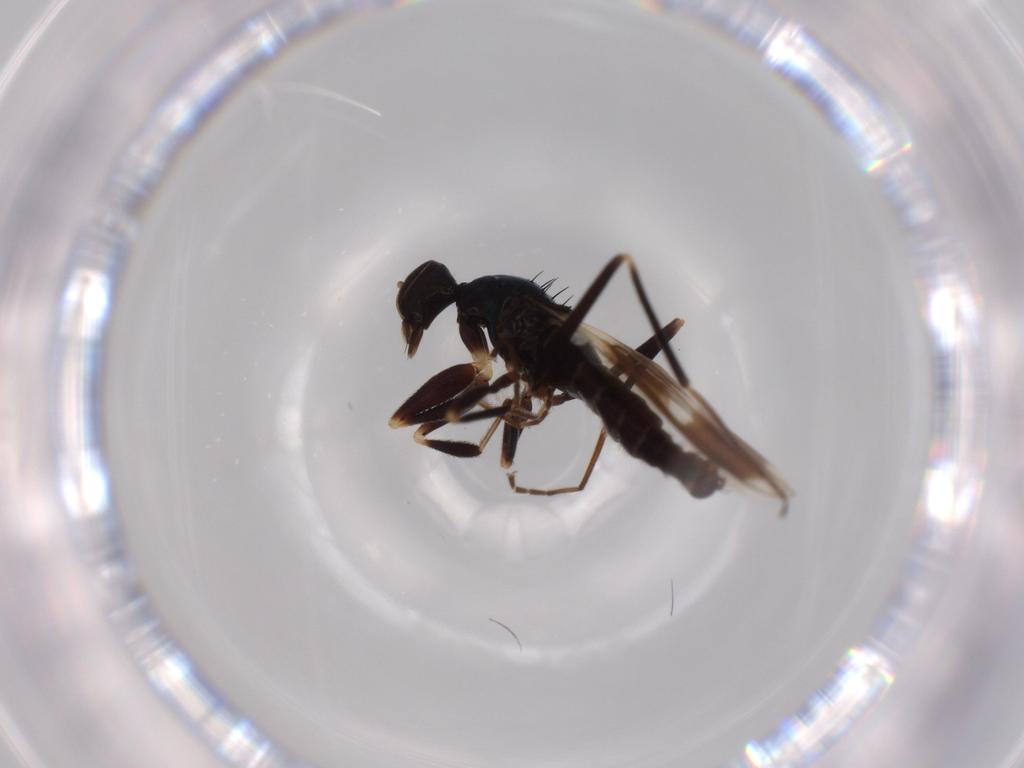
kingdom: Animalia
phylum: Arthropoda
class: Insecta
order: Diptera
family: Hybotidae
